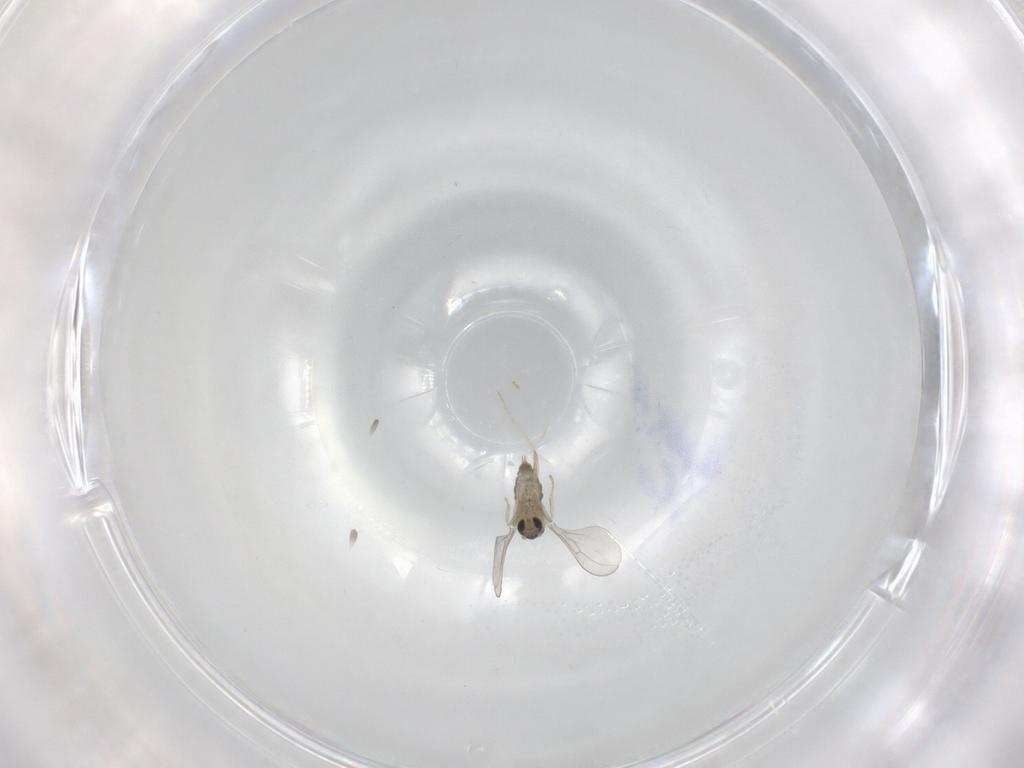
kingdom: Animalia
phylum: Arthropoda
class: Insecta
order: Diptera
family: Cecidomyiidae
